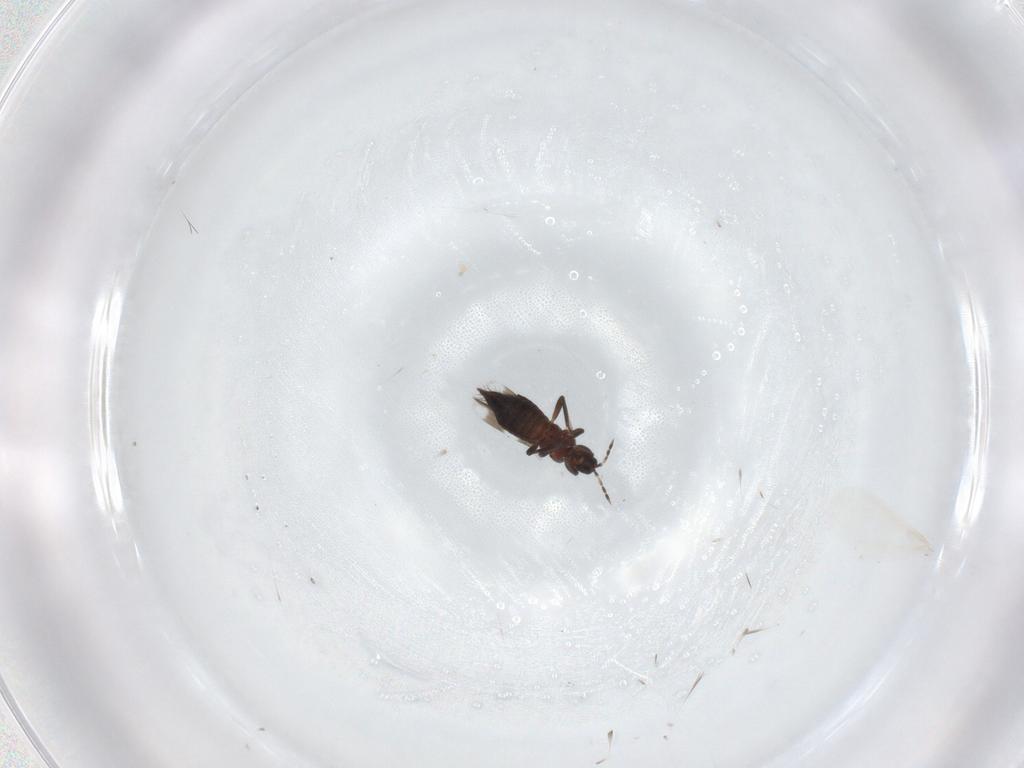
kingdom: Animalia
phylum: Arthropoda
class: Insecta
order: Thysanoptera
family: Aeolothripidae
